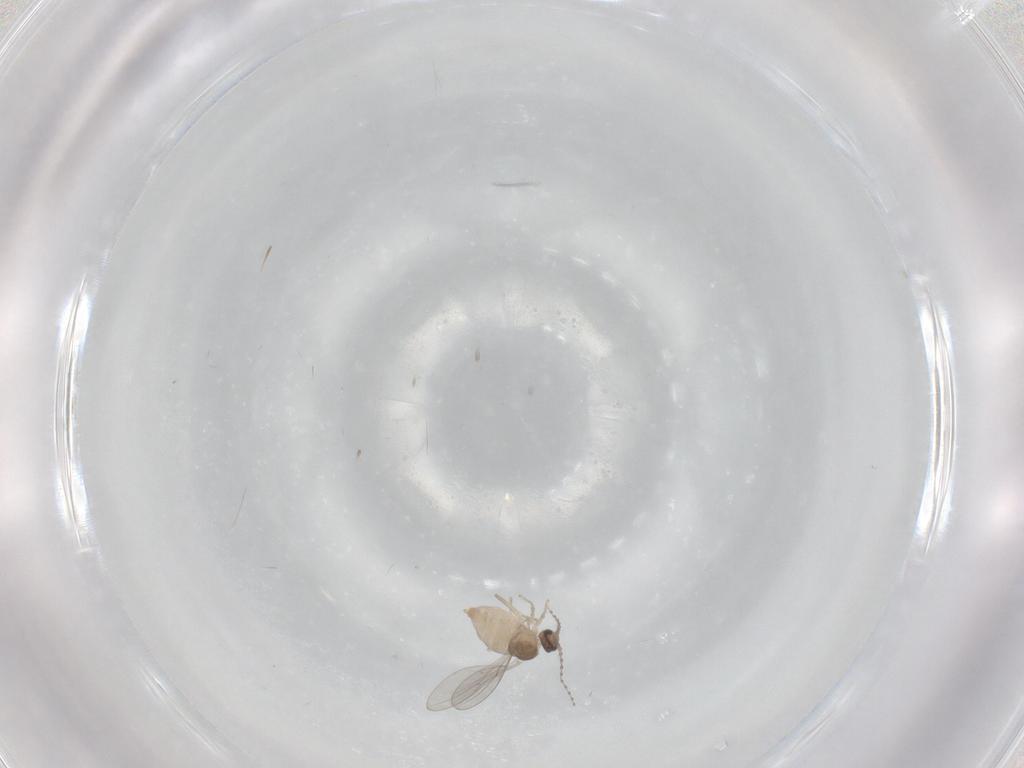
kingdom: Animalia
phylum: Arthropoda
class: Insecta
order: Diptera
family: Cecidomyiidae
